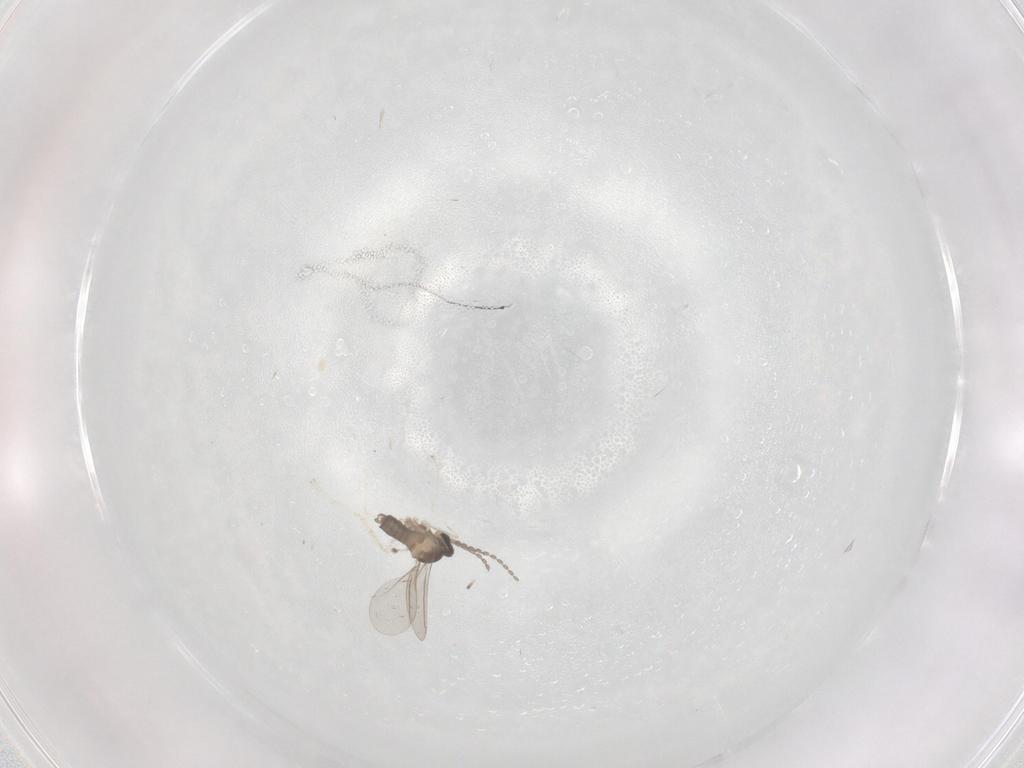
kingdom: Animalia
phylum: Arthropoda
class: Insecta
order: Diptera
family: Cecidomyiidae
